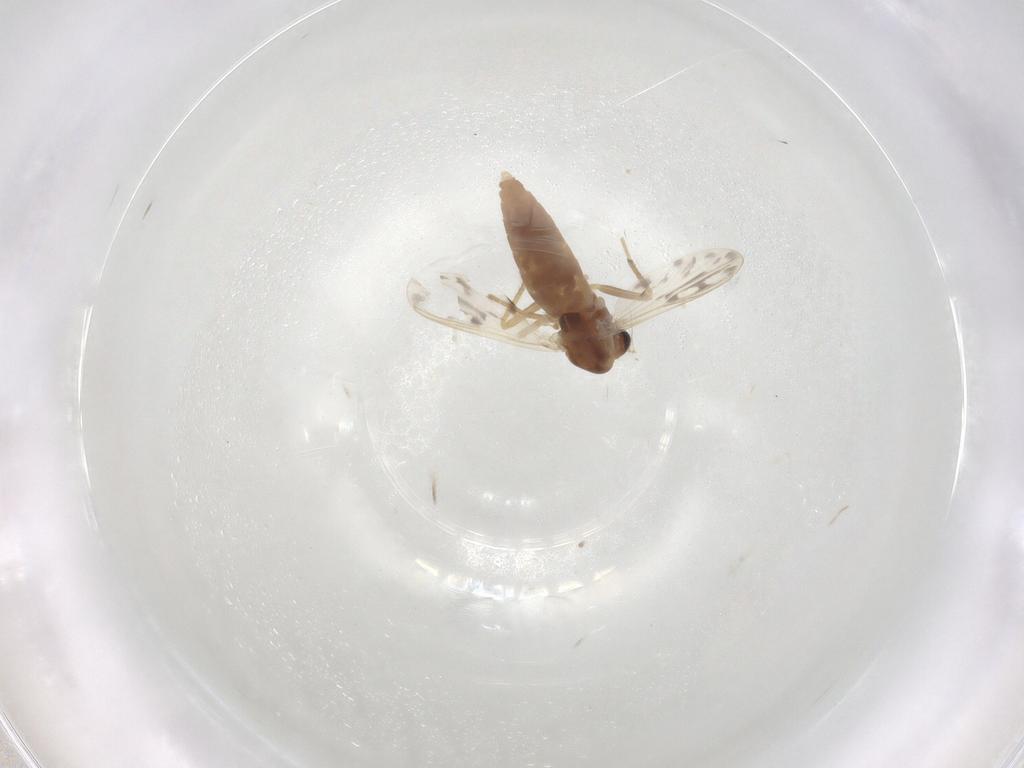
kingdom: Animalia
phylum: Arthropoda
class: Insecta
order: Diptera
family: Chironomidae
